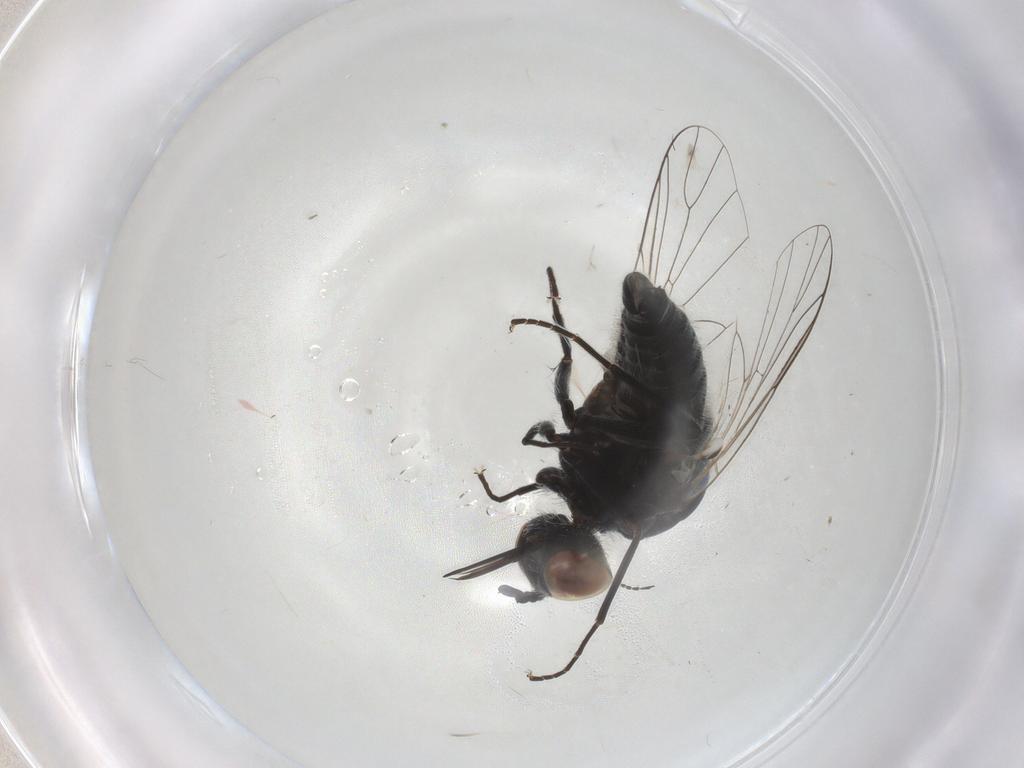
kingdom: Animalia
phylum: Arthropoda
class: Insecta
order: Diptera
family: Bombyliidae
